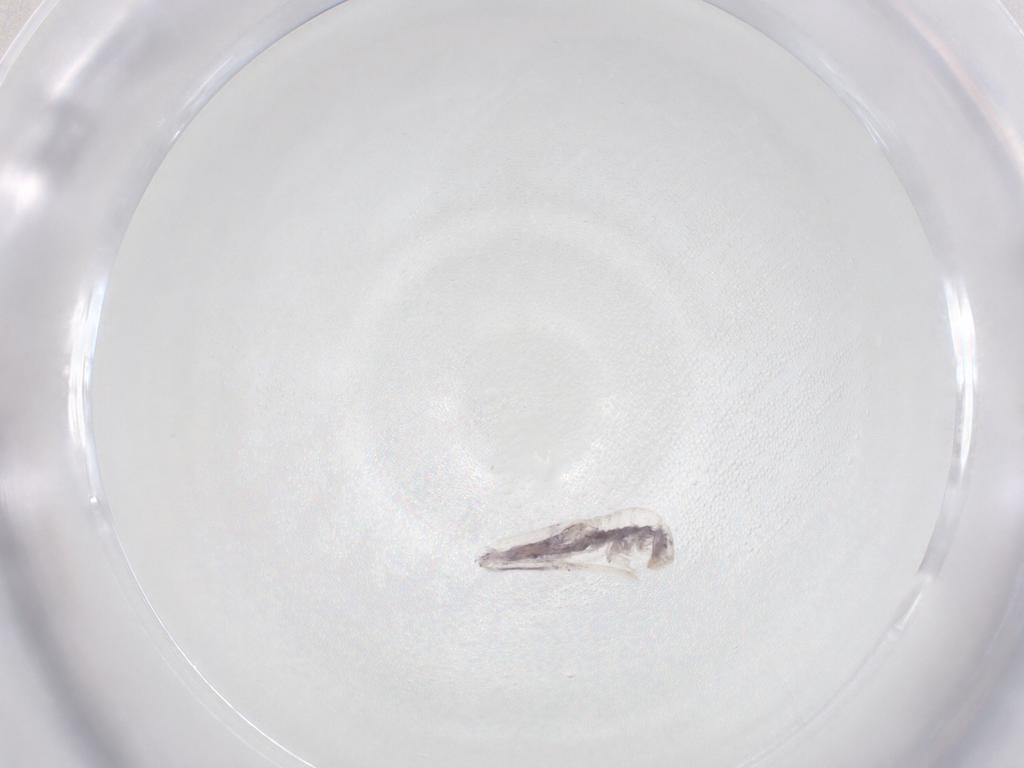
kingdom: Animalia
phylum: Arthropoda
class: Collembola
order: Entomobryomorpha
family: Entomobryidae
